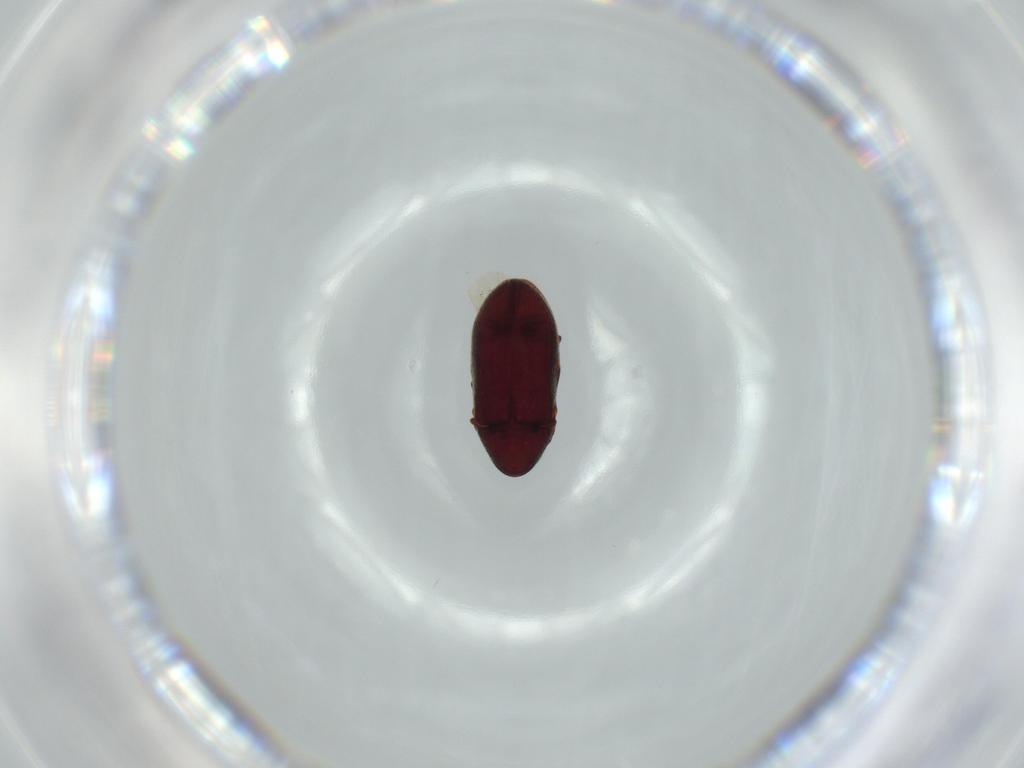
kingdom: Animalia
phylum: Arthropoda
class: Insecta
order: Coleoptera
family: Ptinidae
